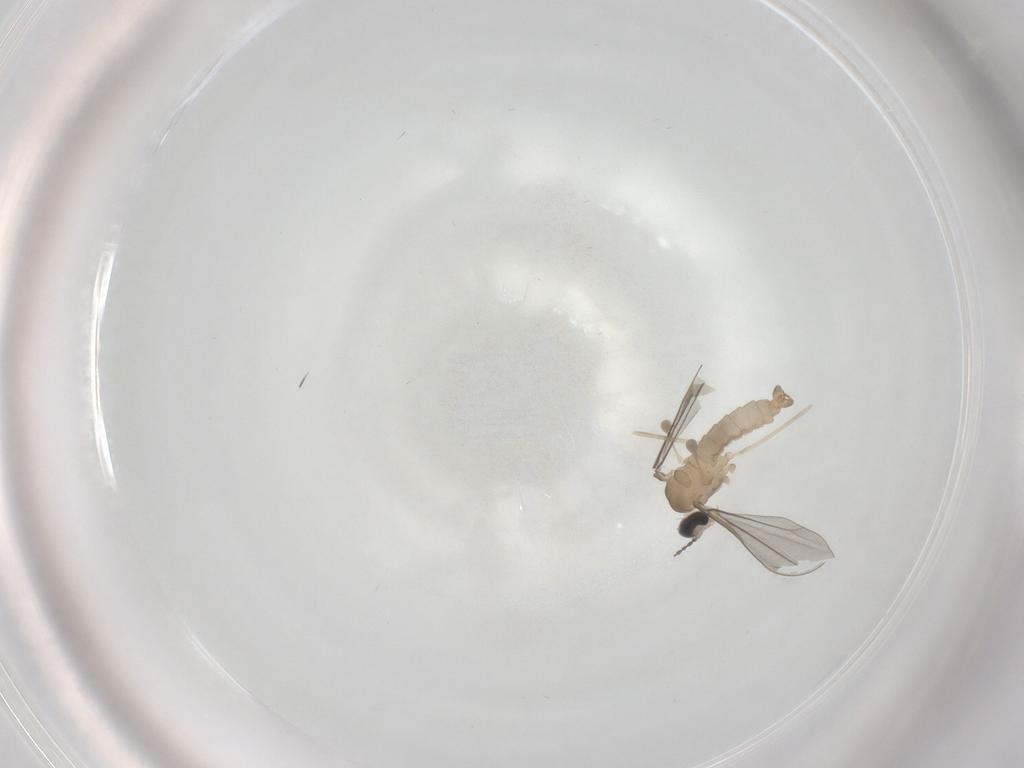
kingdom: Animalia
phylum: Arthropoda
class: Insecta
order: Diptera
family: Cecidomyiidae
